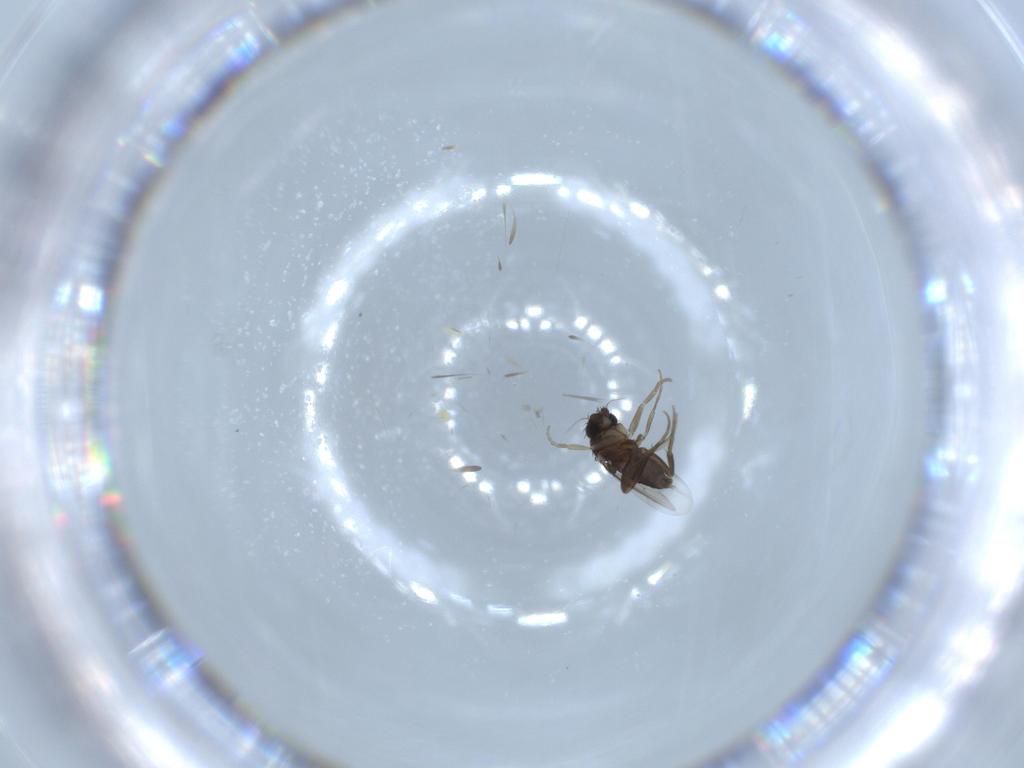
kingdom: Animalia
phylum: Arthropoda
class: Insecta
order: Diptera
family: Phoridae
